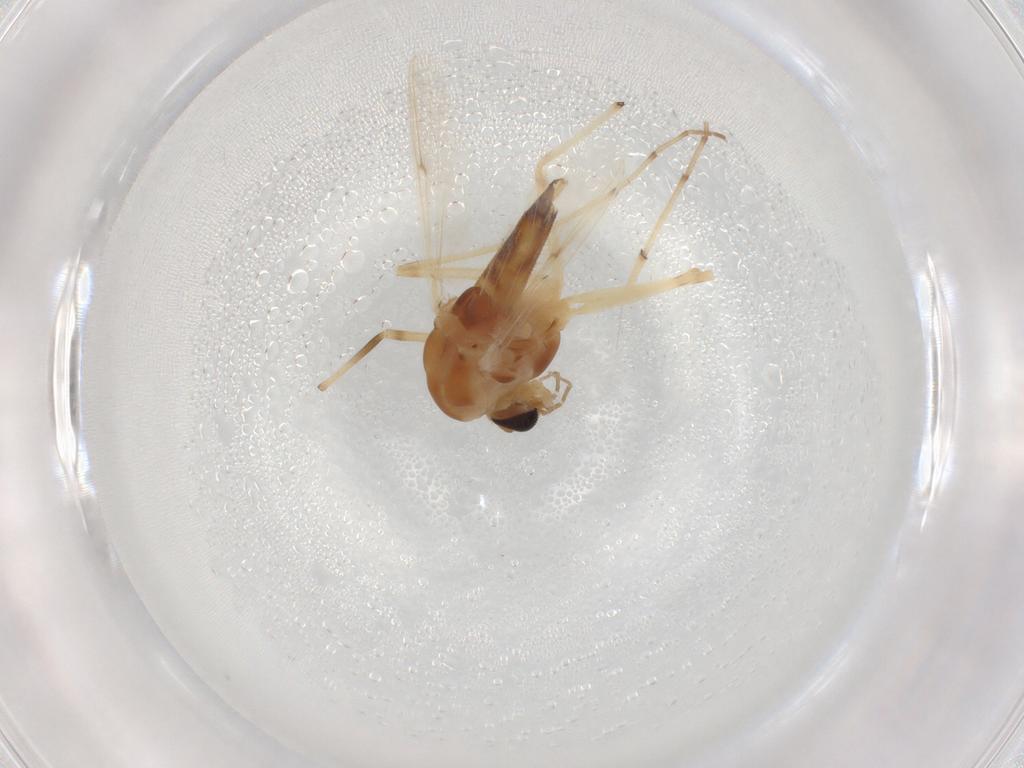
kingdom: Animalia
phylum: Arthropoda
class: Insecta
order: Diptera
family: Chironomidae
